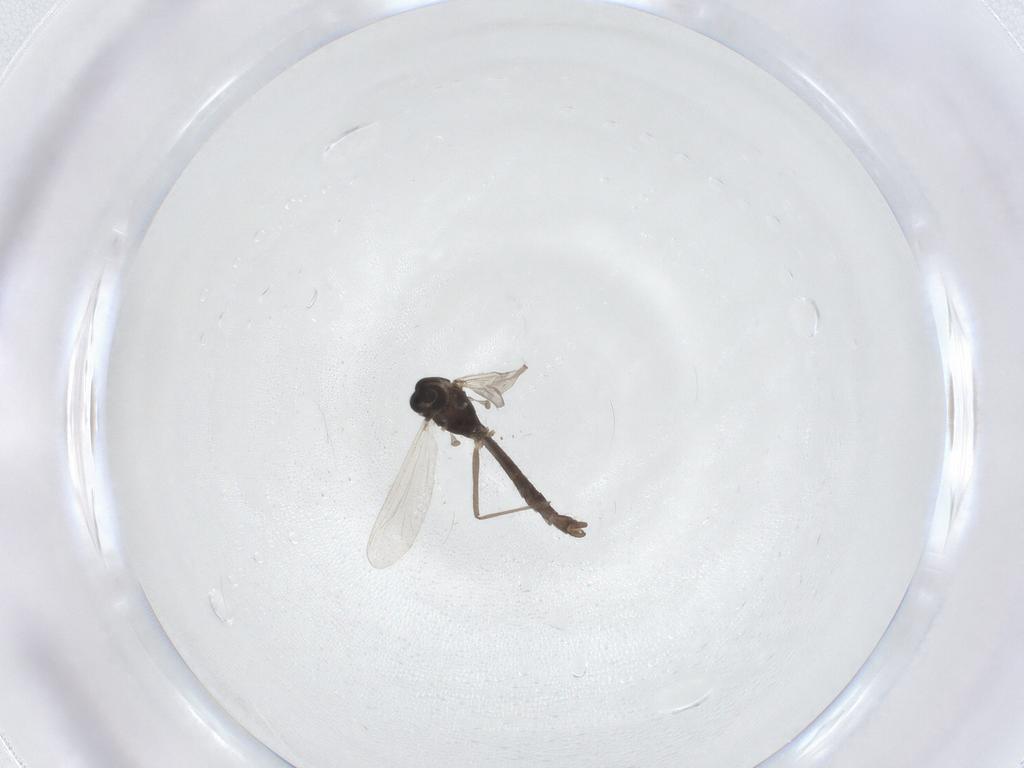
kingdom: Animalia
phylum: Arthropoda
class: Insecta
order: Diptera
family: Chironomidae
